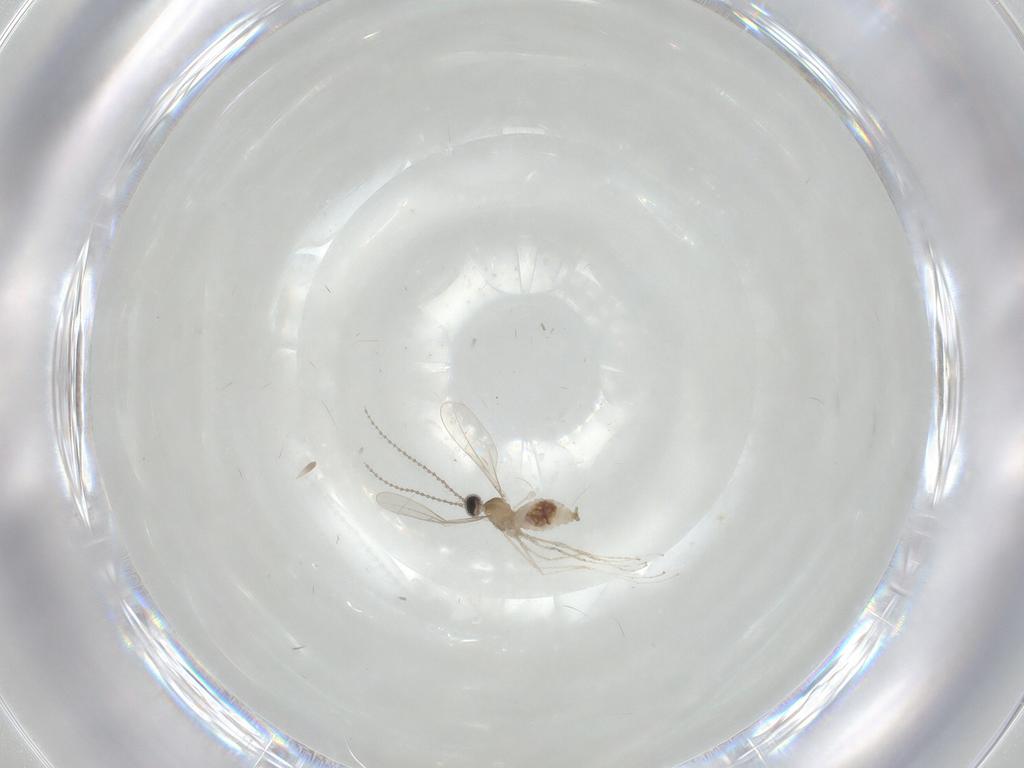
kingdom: Animalia
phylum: Arthropoda
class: Insecta
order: Diptera
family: Cecidomyiidae
